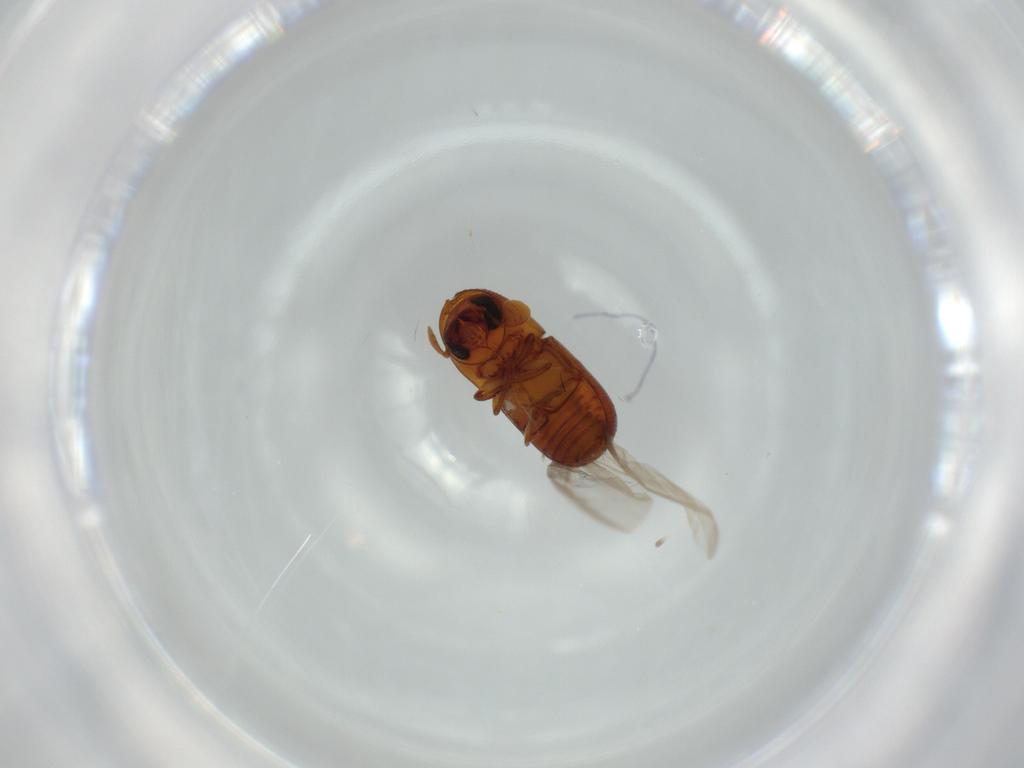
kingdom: Animalia
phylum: Arthropoda
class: Insecta
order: Coleoptera
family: Curculionidae
